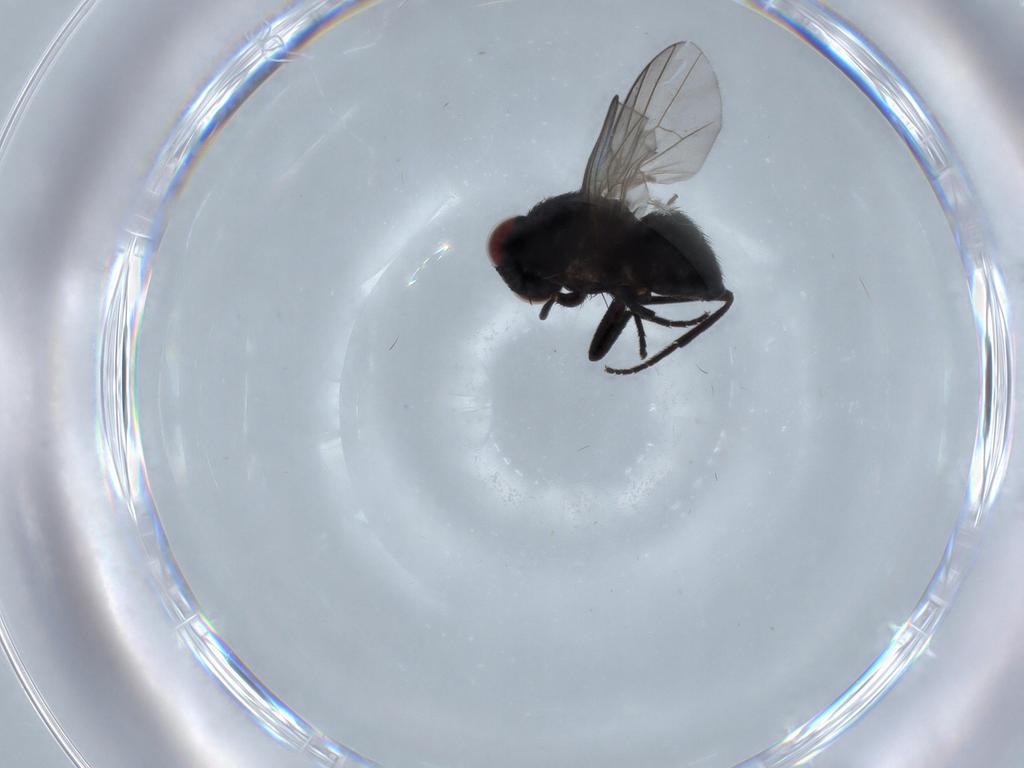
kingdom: Animalia
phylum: Arthropoda
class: Insecta
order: Diptera
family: Agromyzidae
